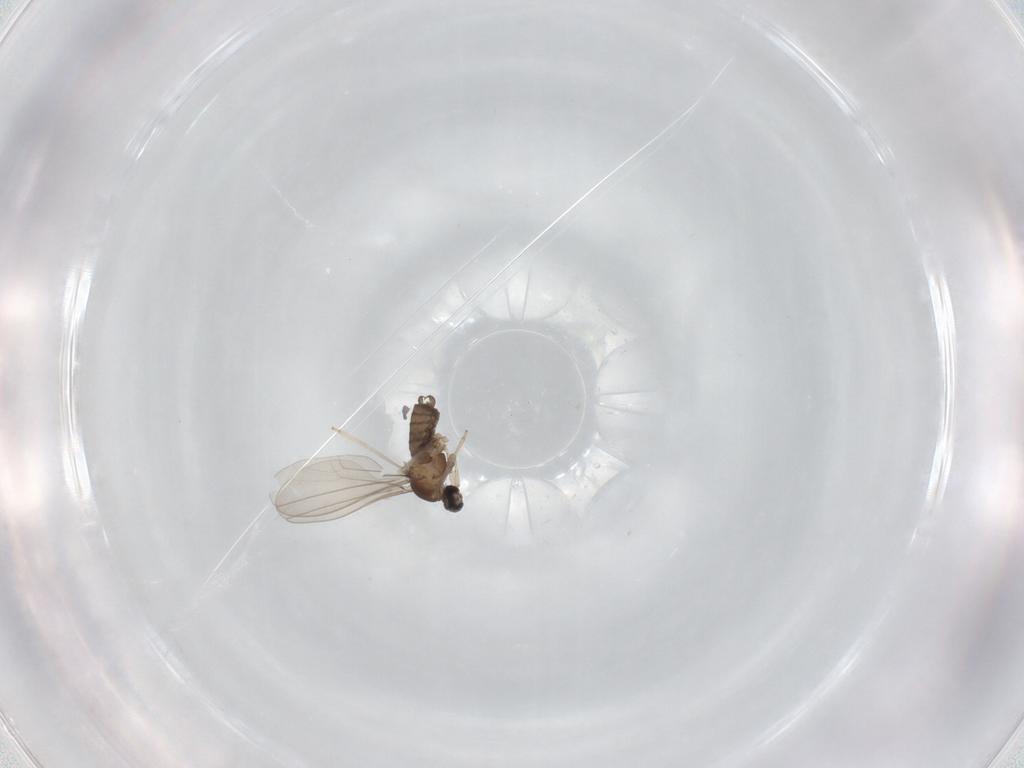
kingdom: Animalia
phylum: Arthropoda
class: Insecta
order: Diptera
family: Cecidomyiidae
